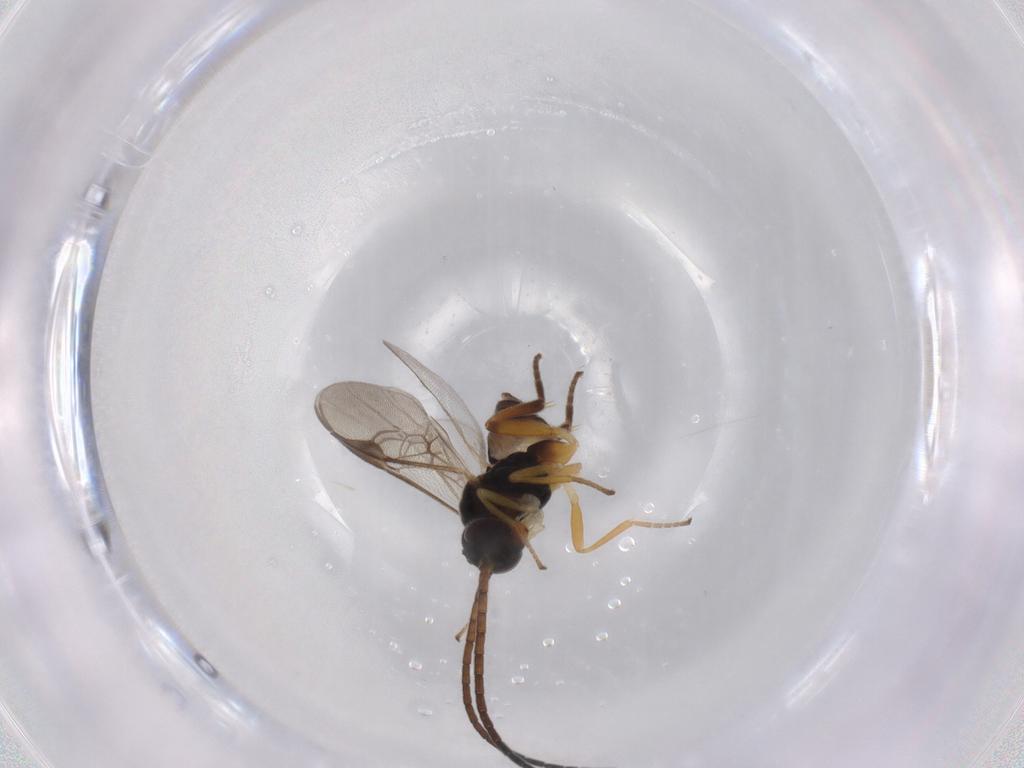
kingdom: Animalia
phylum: Arthropoda
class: Insecta
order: Hymenoptera
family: Braconidae
